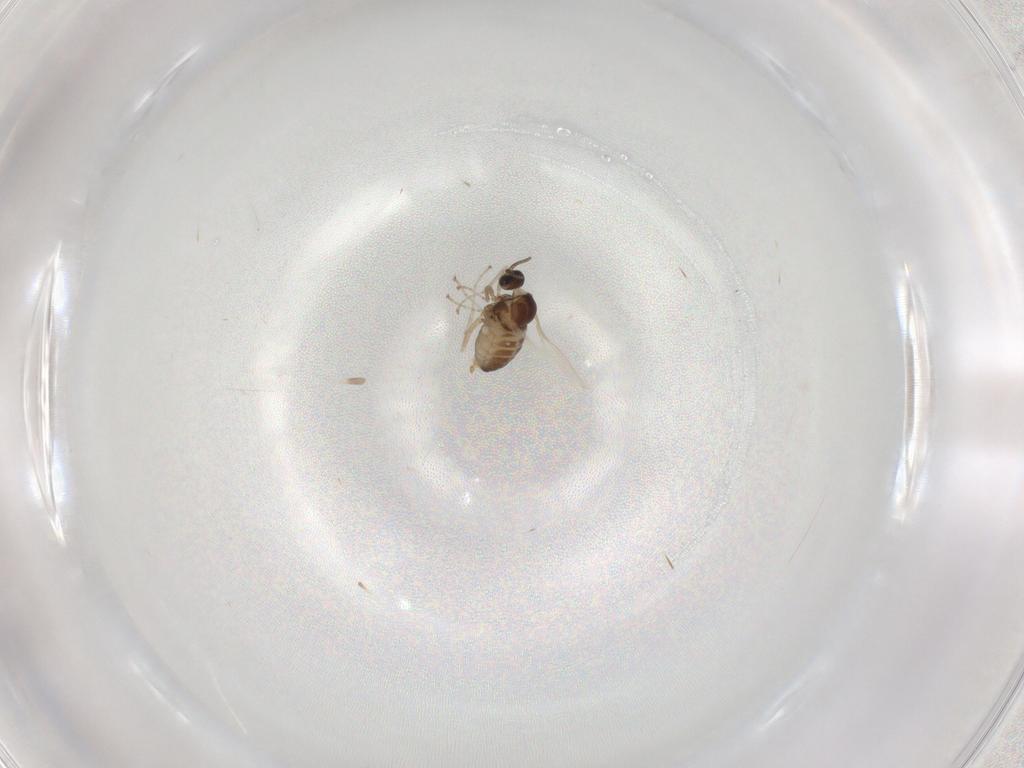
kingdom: Animalia
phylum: Arthropoda
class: Insecta
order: Diptera
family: Cecidomyiidae
